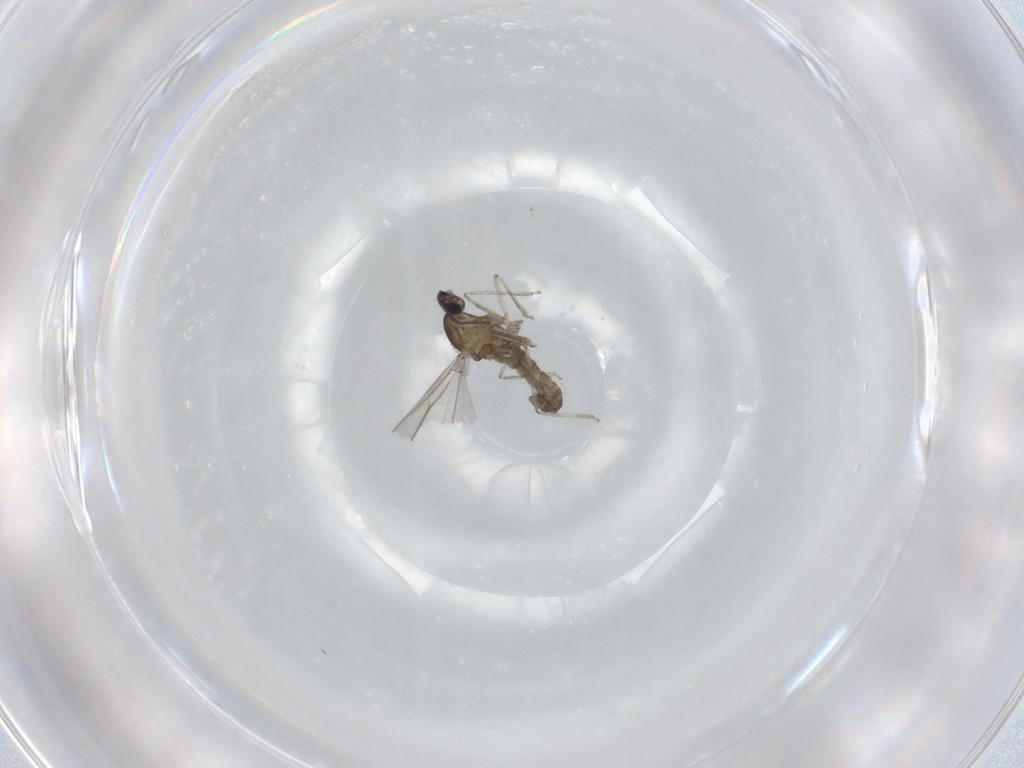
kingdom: Animalia
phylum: Arthropoda
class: Insecta
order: Diptera
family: Cecidomyiidae
